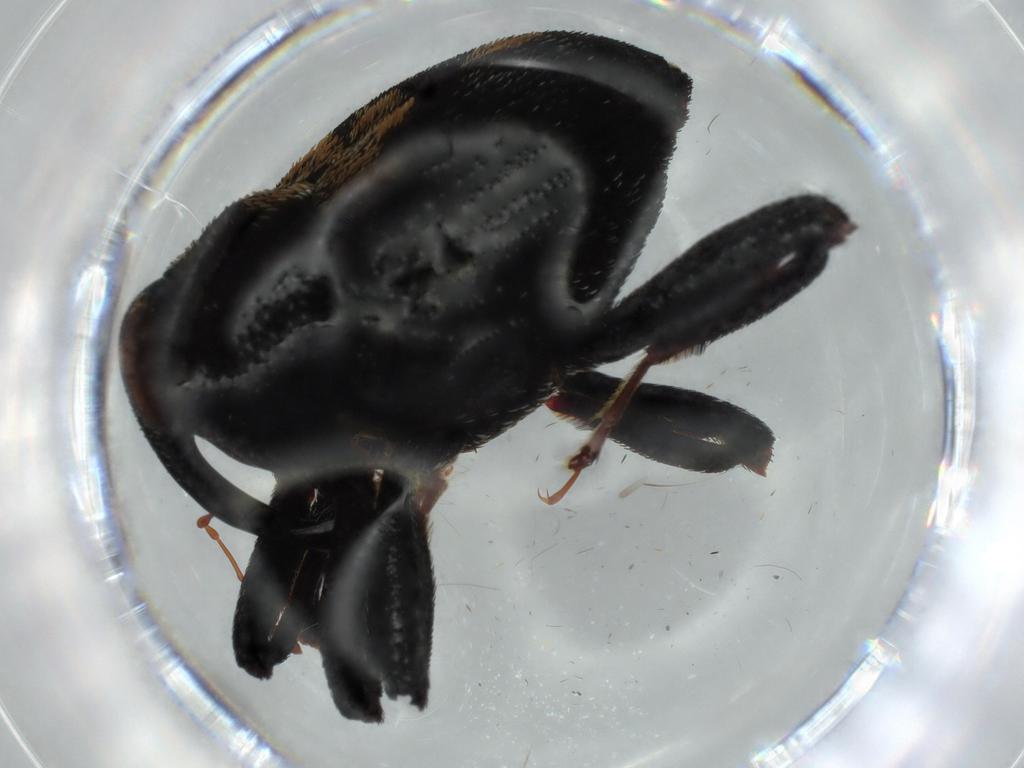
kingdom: Animalia
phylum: Arthropoda
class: Insecta
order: Coleoptera
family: Curculionidae
